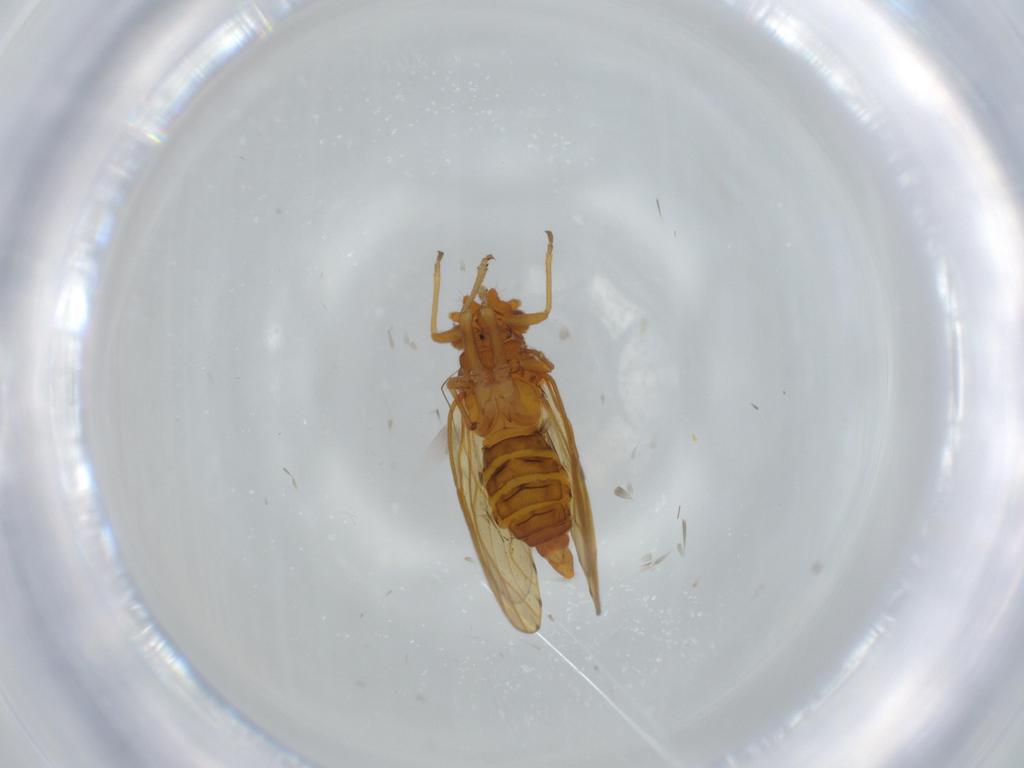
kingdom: Animalia
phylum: Arthropoda
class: Insecta
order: Hemiptera
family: Psylloidea_incertae_sedis
